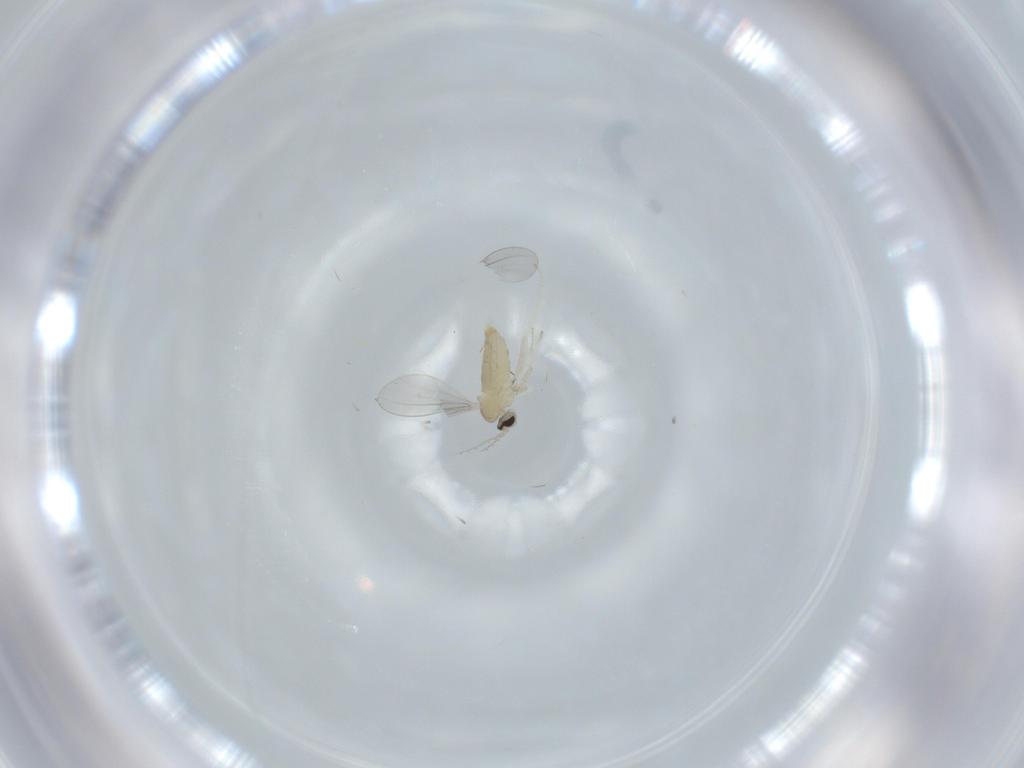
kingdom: Animalia
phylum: Arthropoda
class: Insecta
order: Diptera
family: Cecidomyiidae
